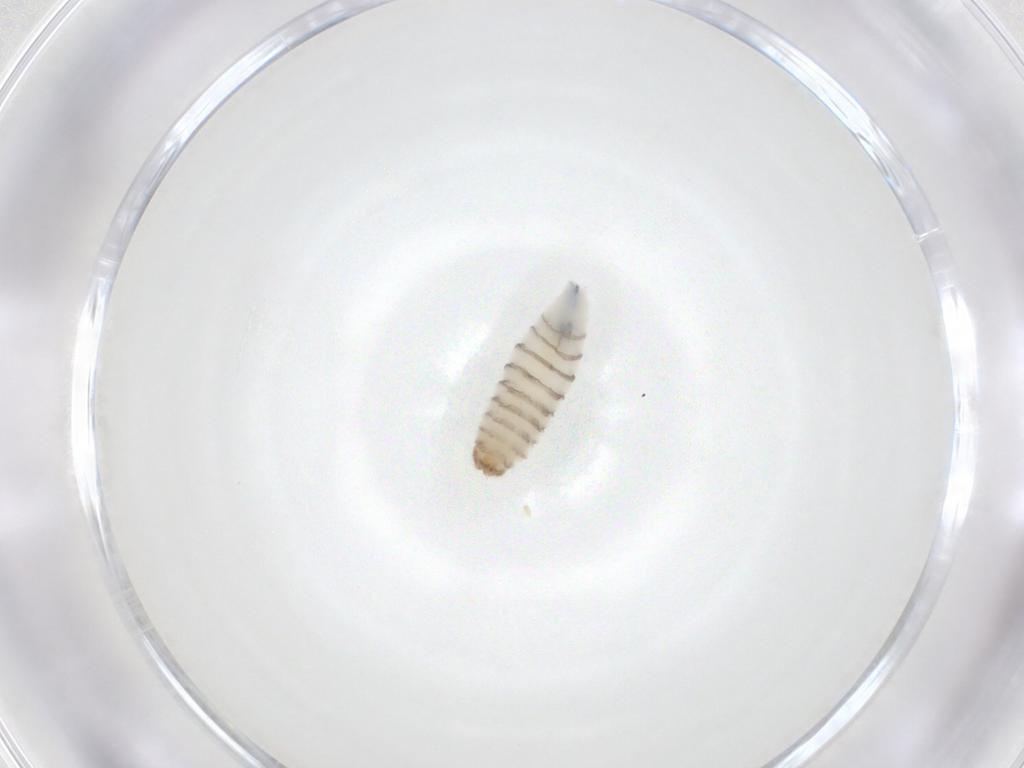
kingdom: Animalia
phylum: Arthropoda
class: Insecta
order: Diptera
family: Sarcophagidae
